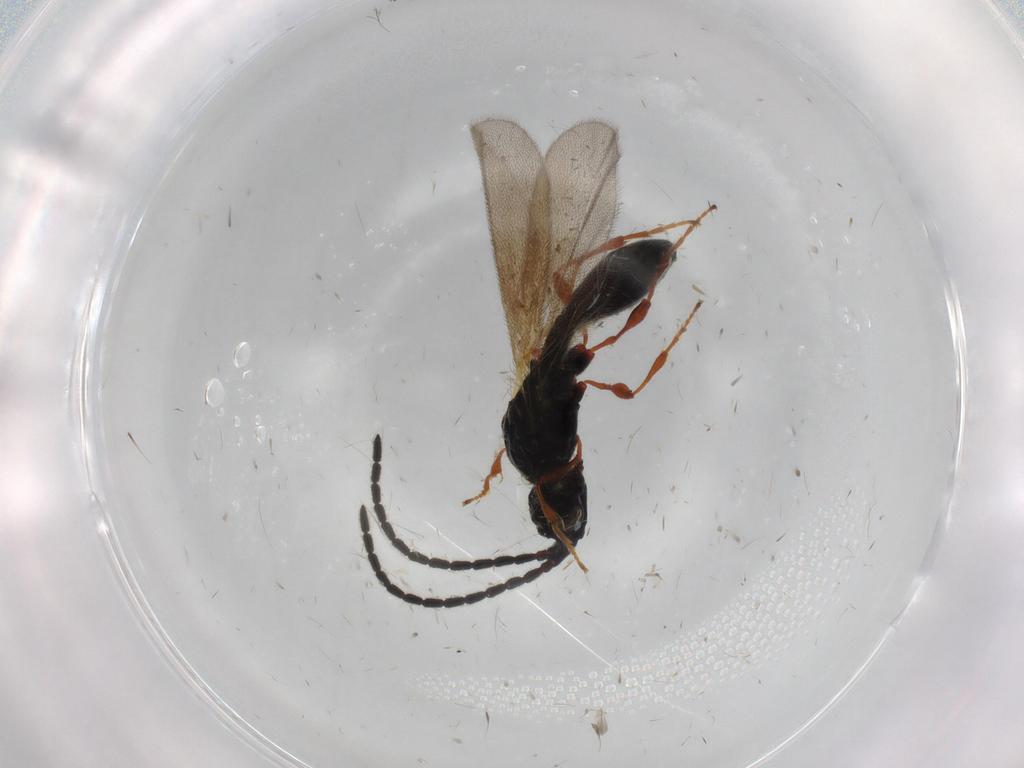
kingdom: Animalia
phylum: Arthropoda
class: Insecta
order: Hymenoptera
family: Diapriidae
